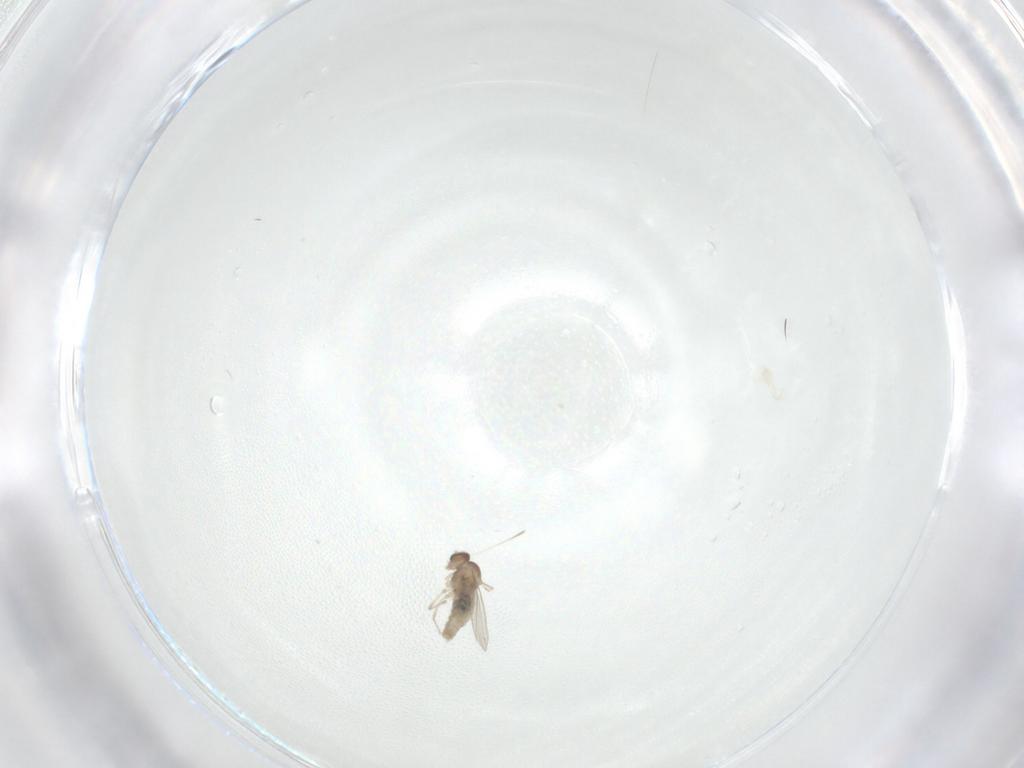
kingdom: Animalia
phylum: Arthropoda
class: Insecta
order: Diptera
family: Cecidomyiidae
